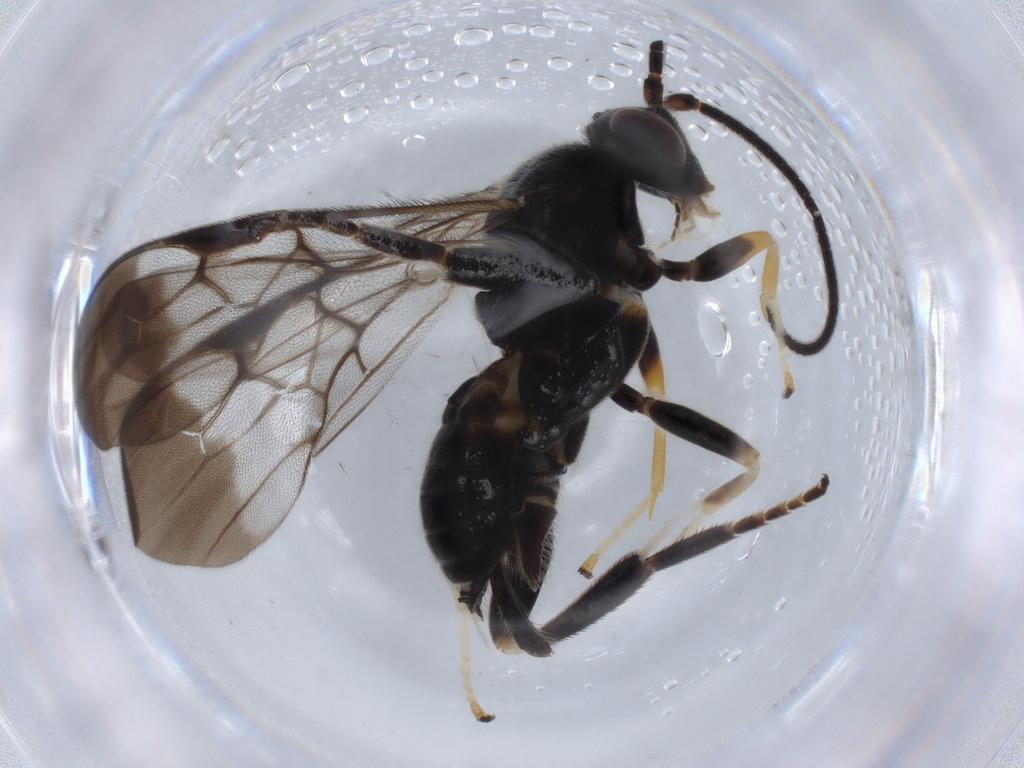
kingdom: Animalia
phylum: Arthropoda
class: Insecta
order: Hymenoptera
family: Braconidae
